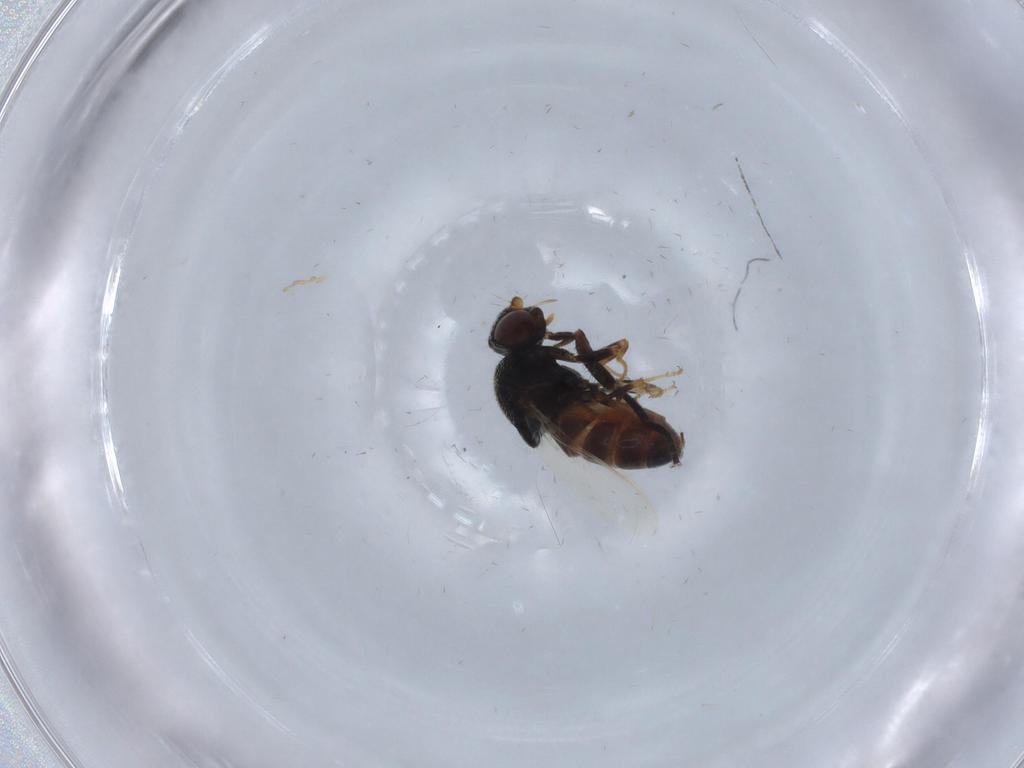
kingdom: Animalia
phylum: Arthropoda
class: Insecta
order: Diptera
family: Chloropidae
